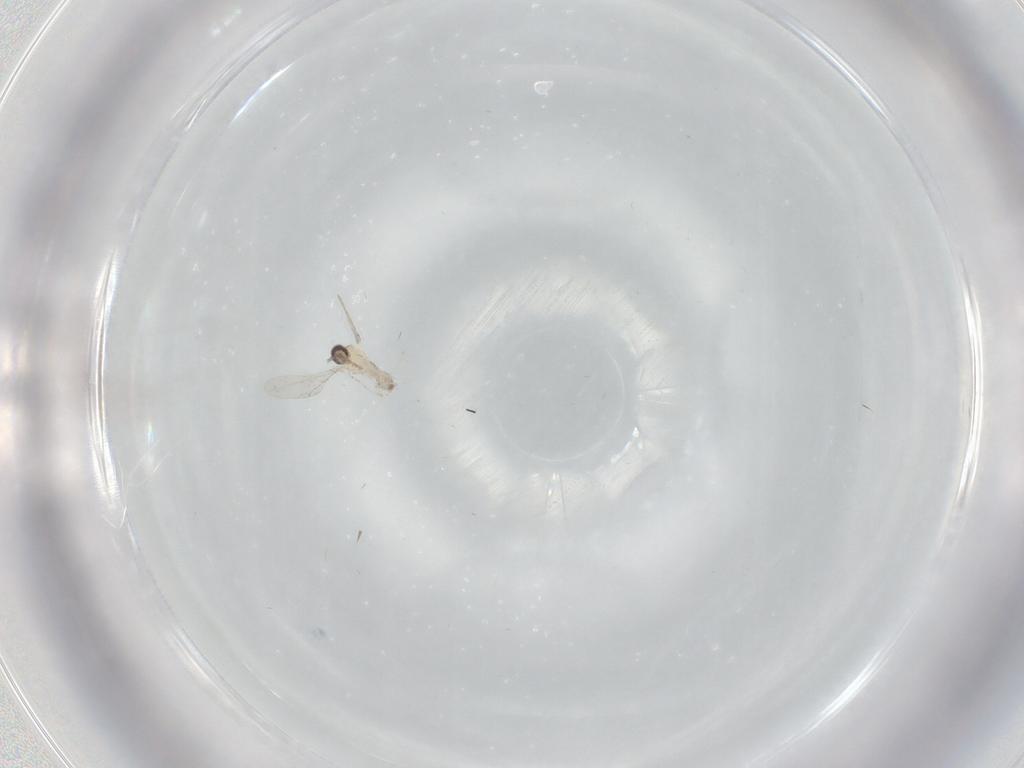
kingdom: Animalia
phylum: Arthropoda
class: Insecta
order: Diptera
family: Cecidomyiidae
